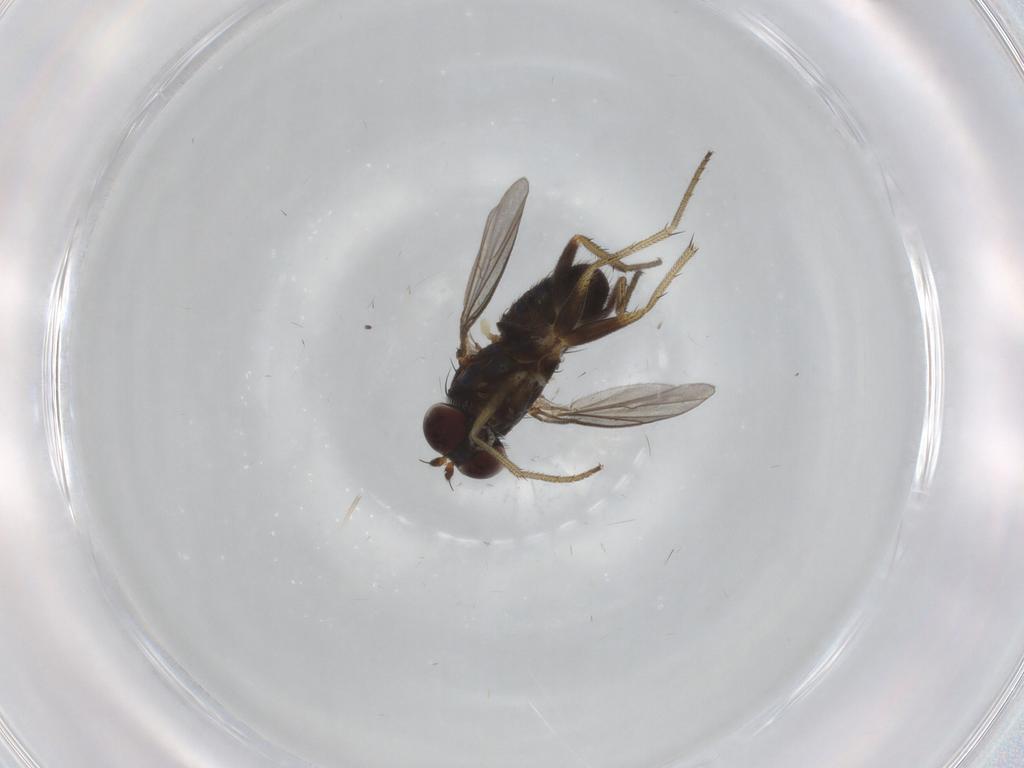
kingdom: Animalia
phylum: Arthropoda
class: Insecta
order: Diptera
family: Dolichopodidae
